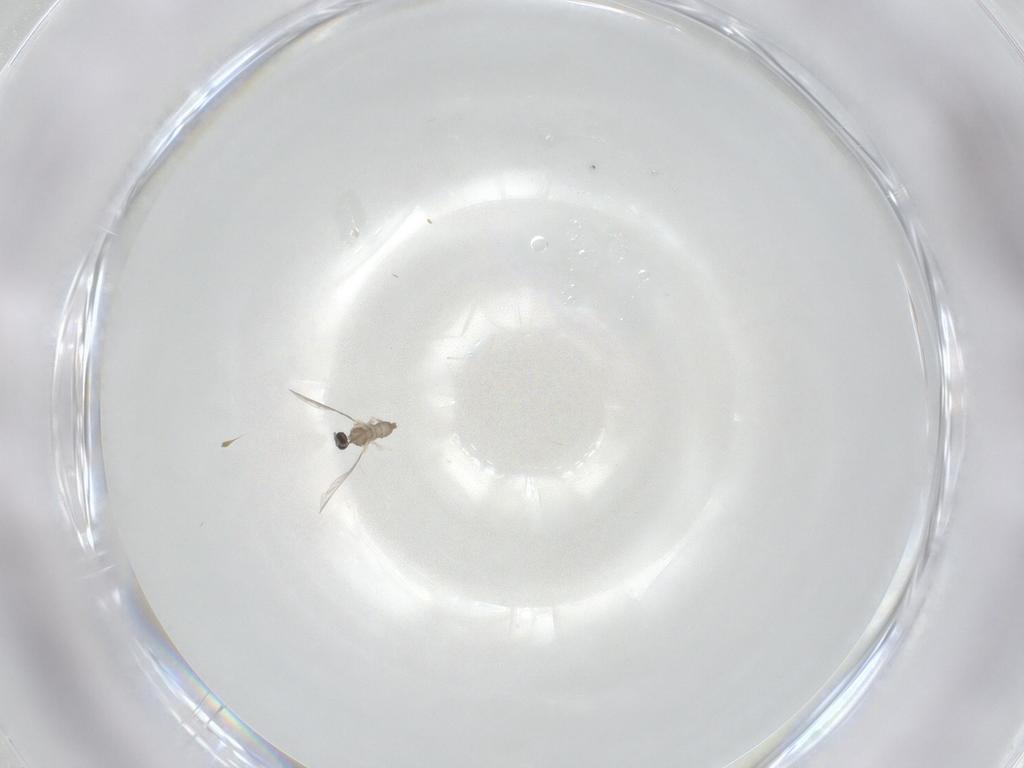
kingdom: Animalia
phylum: Arthropoda
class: Insecta
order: Diptera
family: Cecidomyiidae
